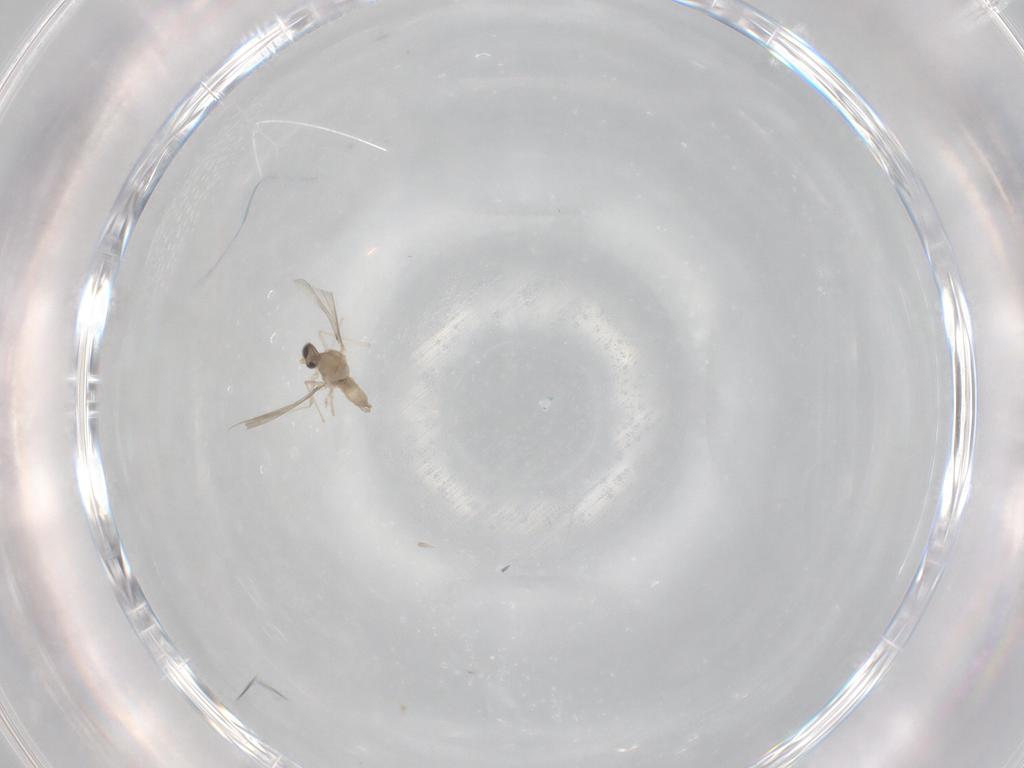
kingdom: Animalia
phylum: Arthropoda
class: Insecta
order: Diptera
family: Cecidomyiidae
